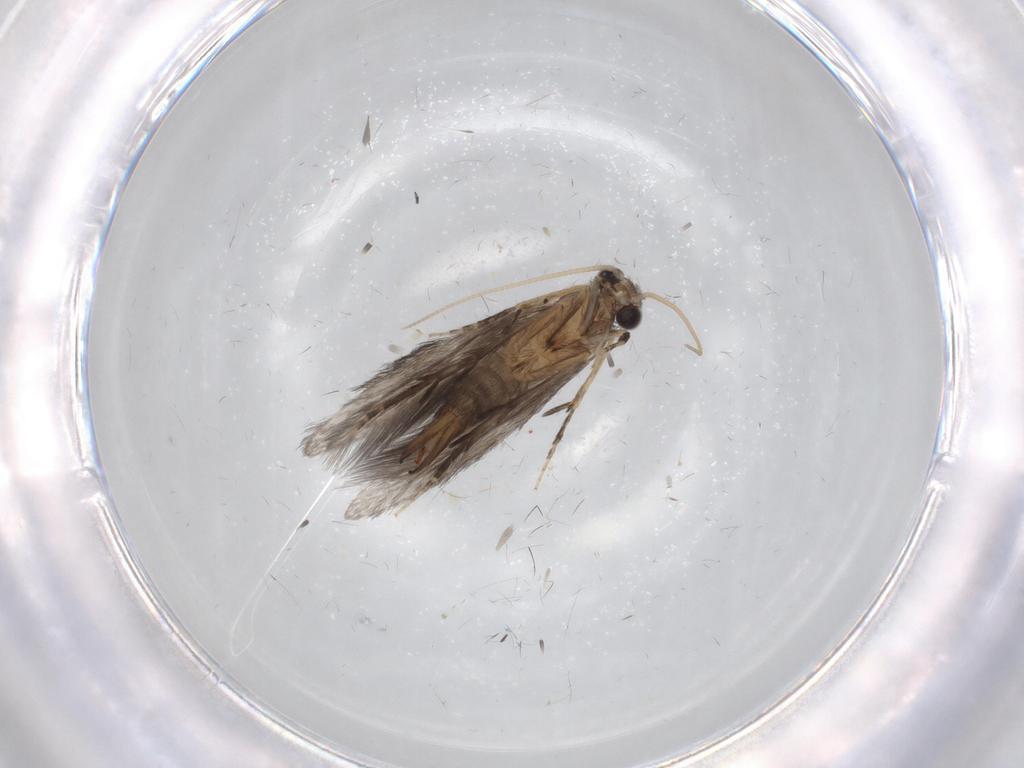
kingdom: Animalia
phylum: Arthropoda
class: Insecta
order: Trichoptera
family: Hydroptilidae
